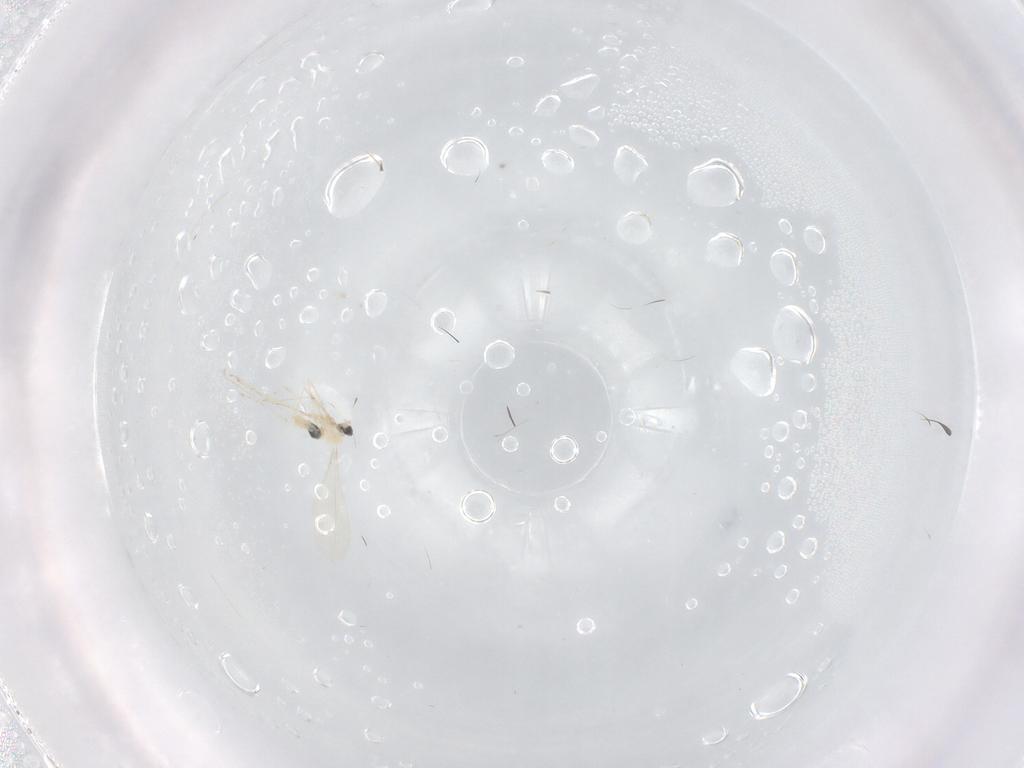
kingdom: Animalia
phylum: Arthropoda
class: Insecta
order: Diptera
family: Cecidomyiidae
